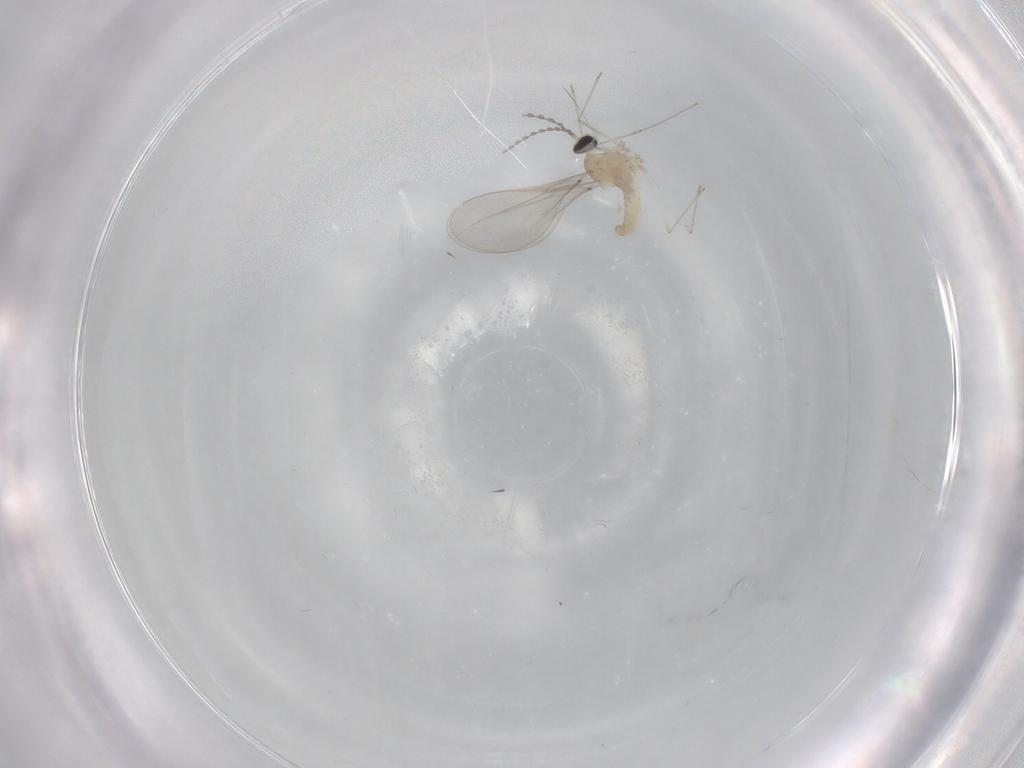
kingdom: Animalia
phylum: Arthropoda
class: Insecta
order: Diptera
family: Cecidomyiidae
